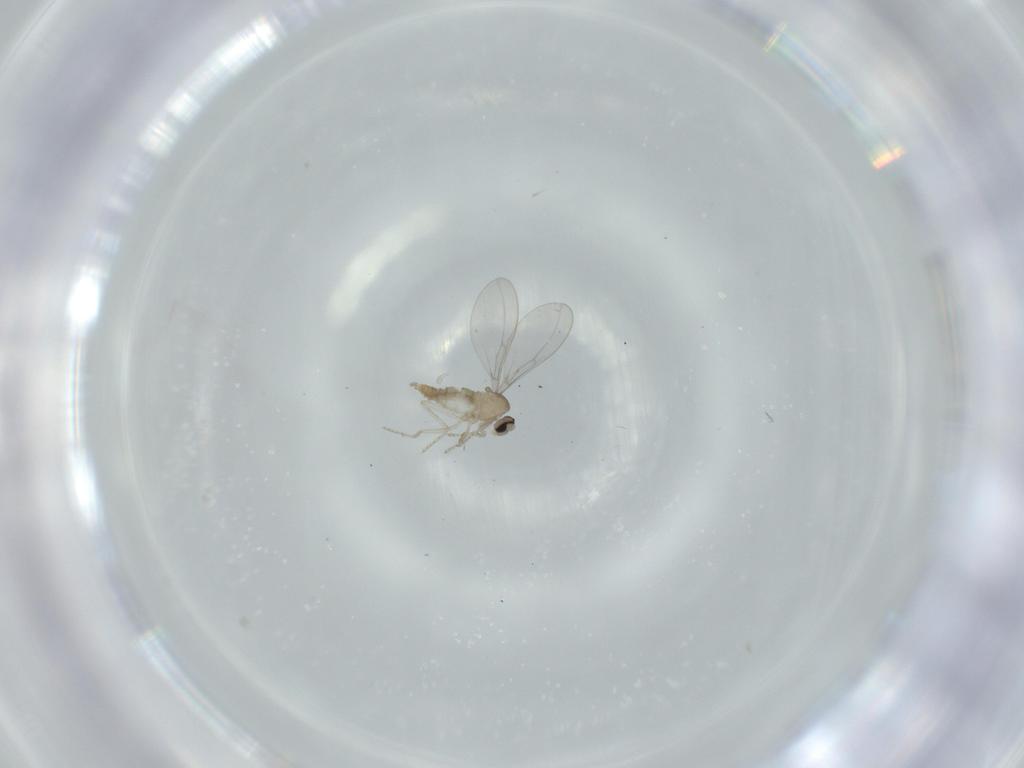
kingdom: Animalia
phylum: Arthropoda
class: Insecta
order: Diptera
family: Cecidomyiidae
